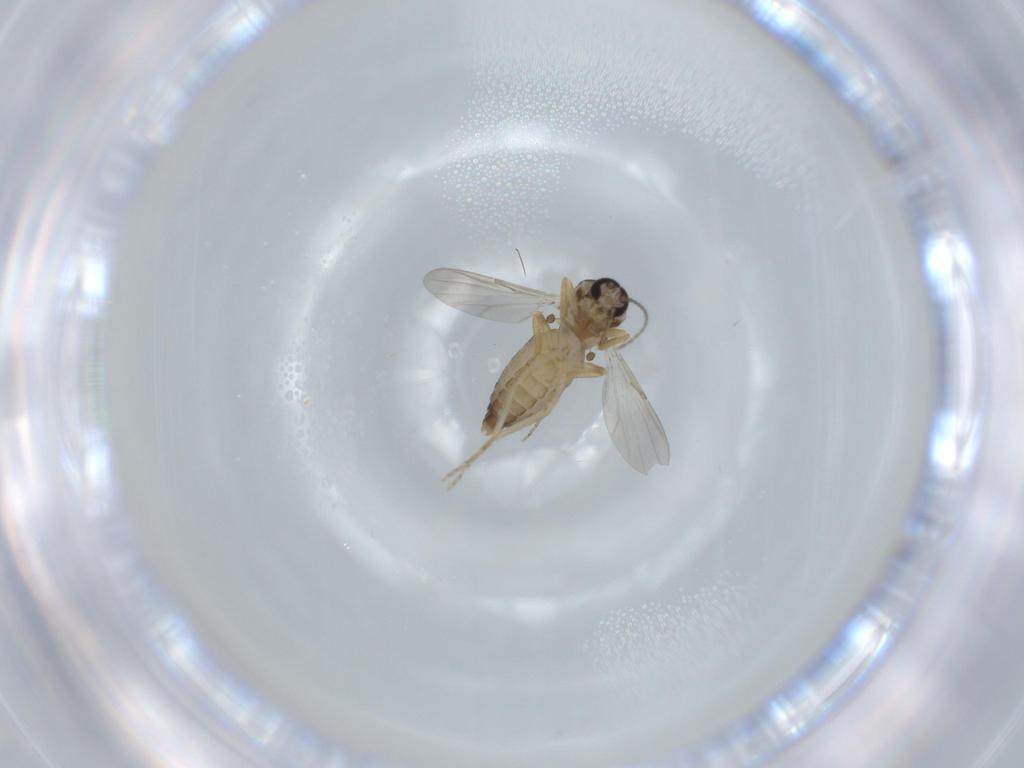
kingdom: Animalia
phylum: Arthropoda
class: Insecta
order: Diptera
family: Ceratopogonidae
